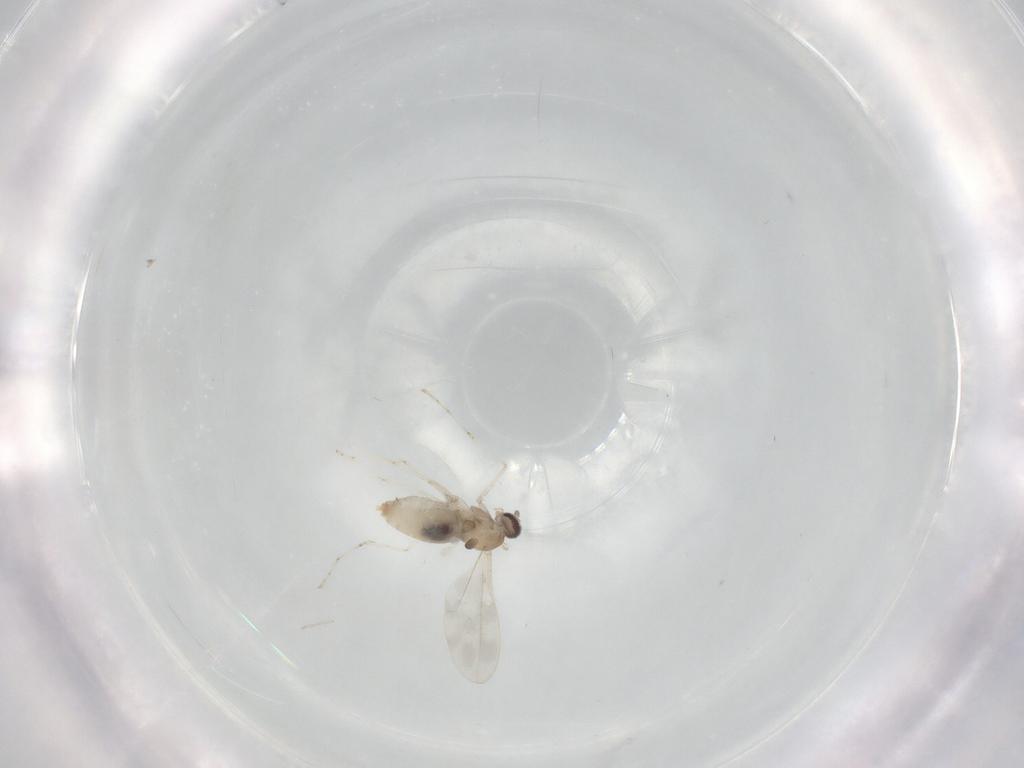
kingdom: Animalia
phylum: Arthropoda
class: Insecta
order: Diptera
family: Cecidomyiidae
